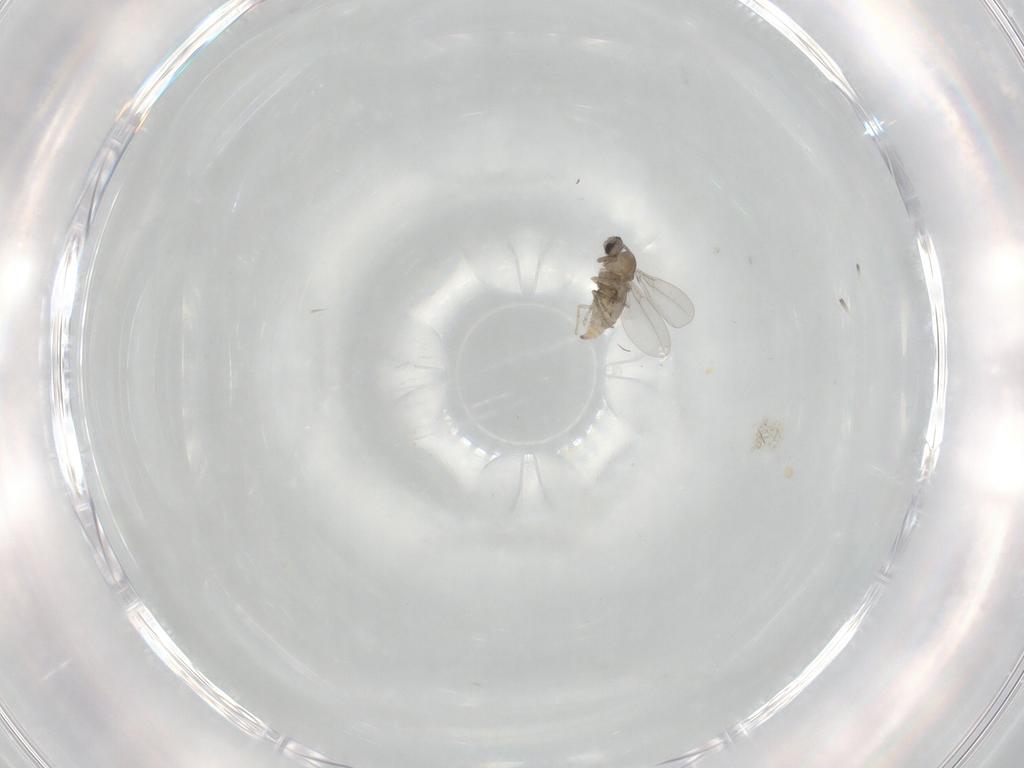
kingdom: Animalia
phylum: Arthropoda
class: Insecta
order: Diptera
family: Cecidomyiidae
